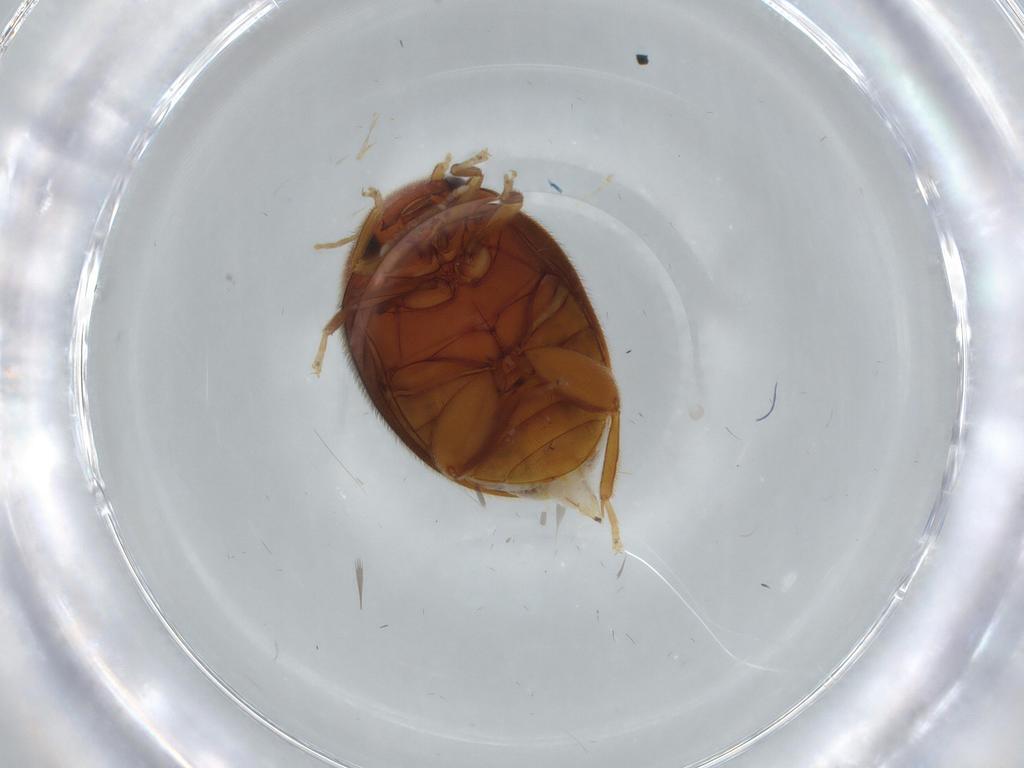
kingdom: Animalia
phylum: Arthropoda
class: Insecta
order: Coleoptera
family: Scirtidae
